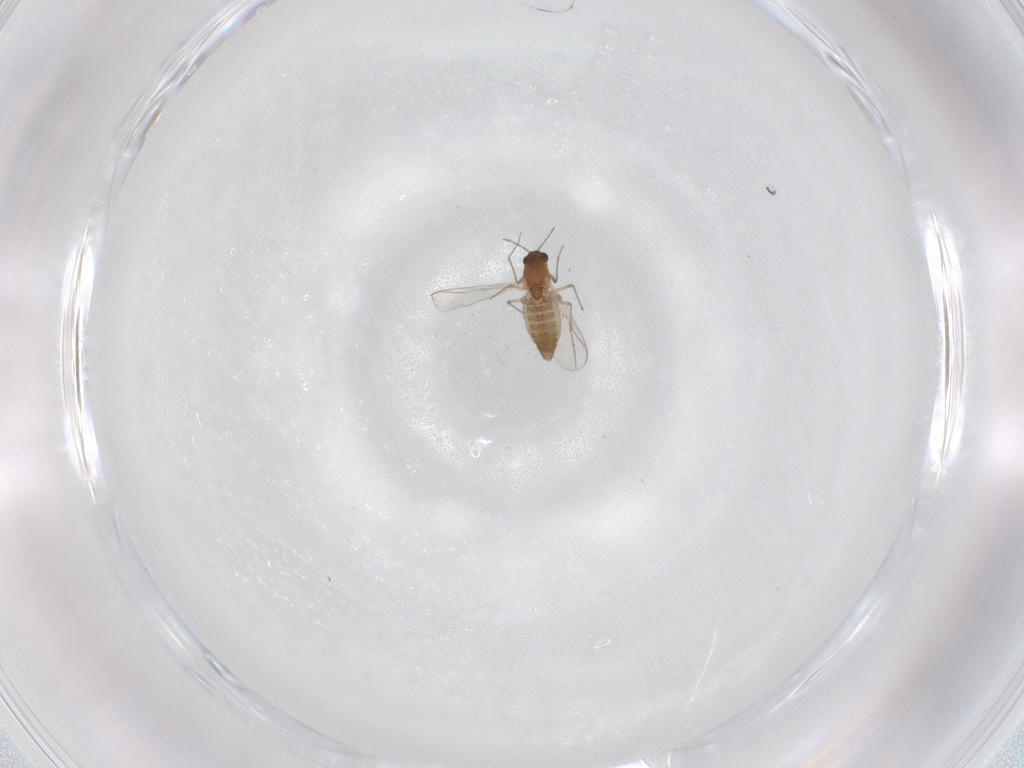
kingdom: Animalia
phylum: Arthropoda
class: Insecta
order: Diptera
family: Chironomidae
